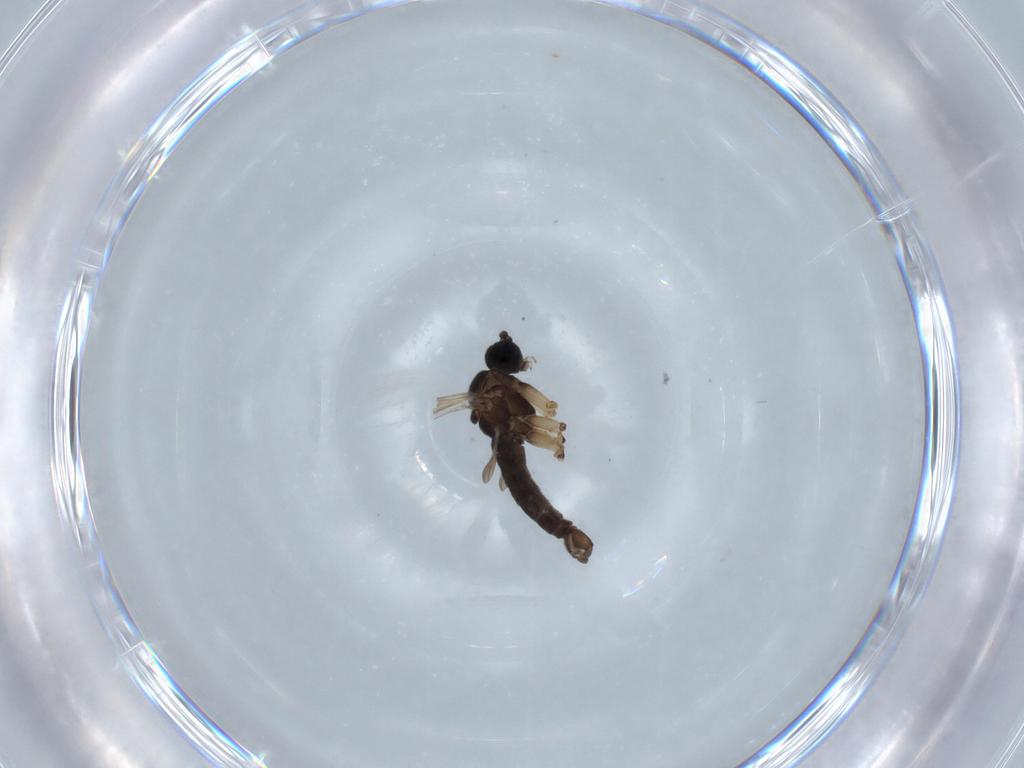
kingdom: Animalia
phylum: Arthropoda
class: Insecta
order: Diptera
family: Sciaridae
